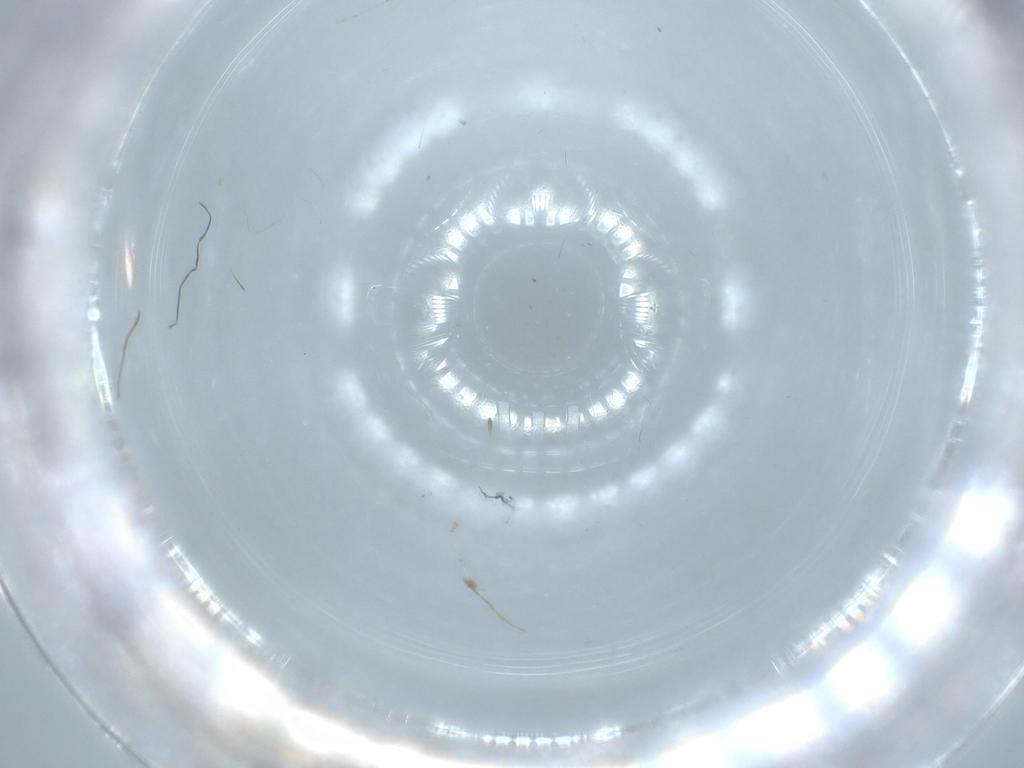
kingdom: Animalia
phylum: Arthropoda
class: Insecta
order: Diptera
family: Cecidomyiidae
